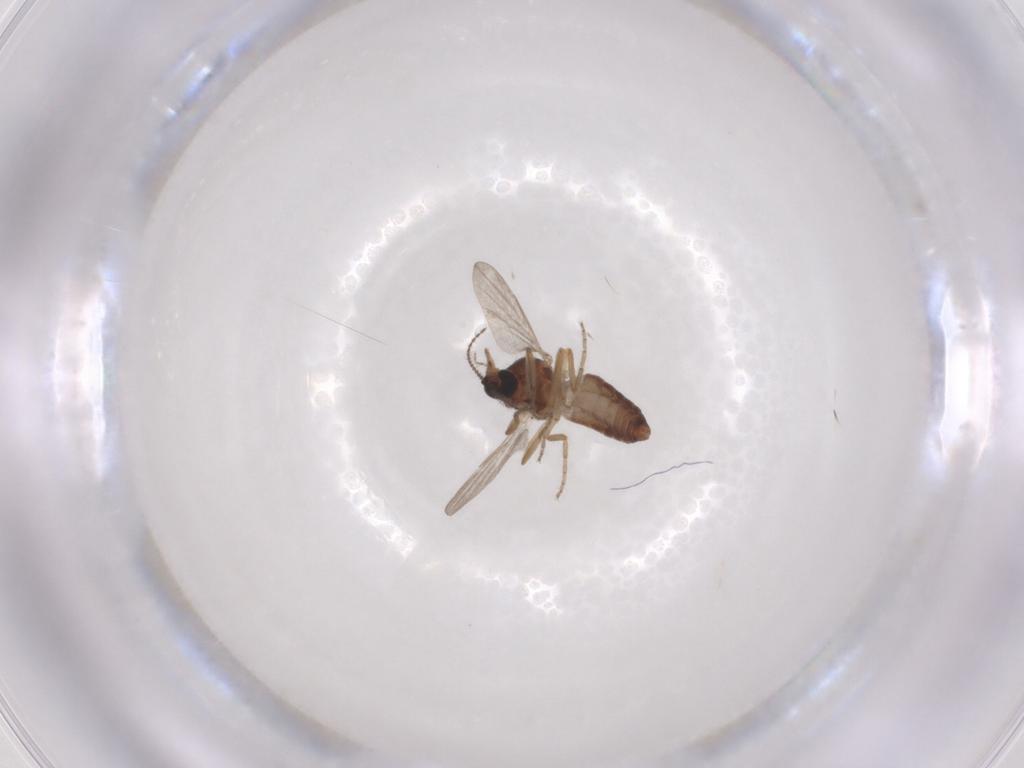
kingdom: Animalia
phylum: Arthropoda
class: Insecta
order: Diptera
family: Ceratopogonidae
